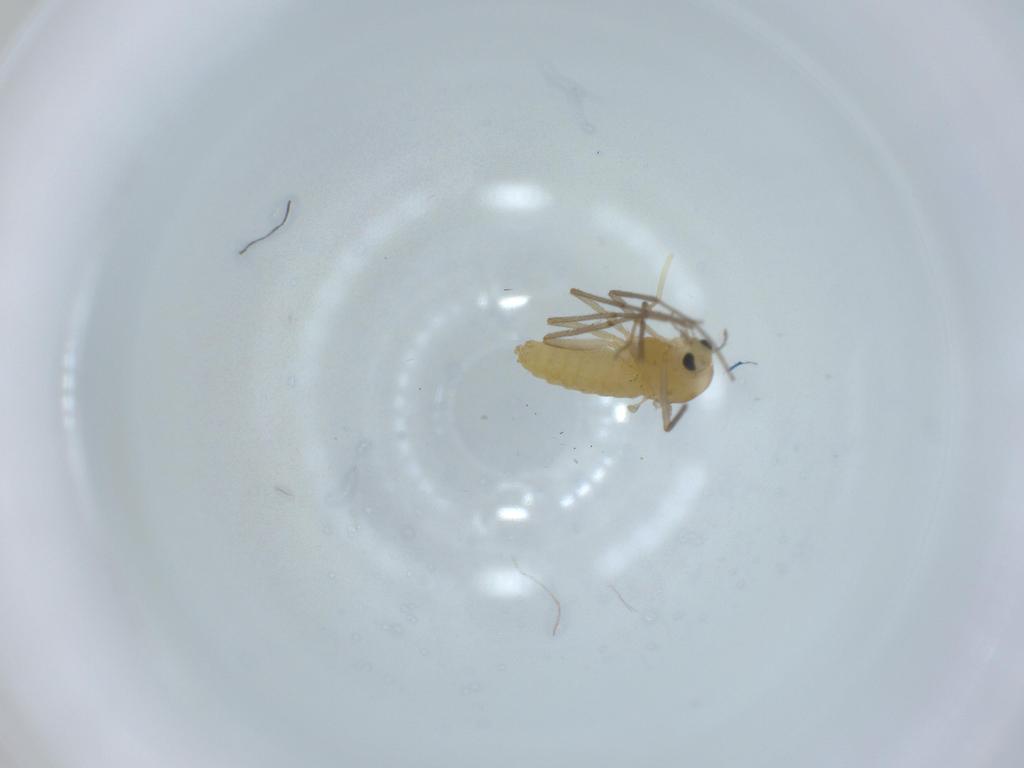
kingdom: Animalia
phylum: Arthropoda
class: Insecta
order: Diptera
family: Chironomidae
